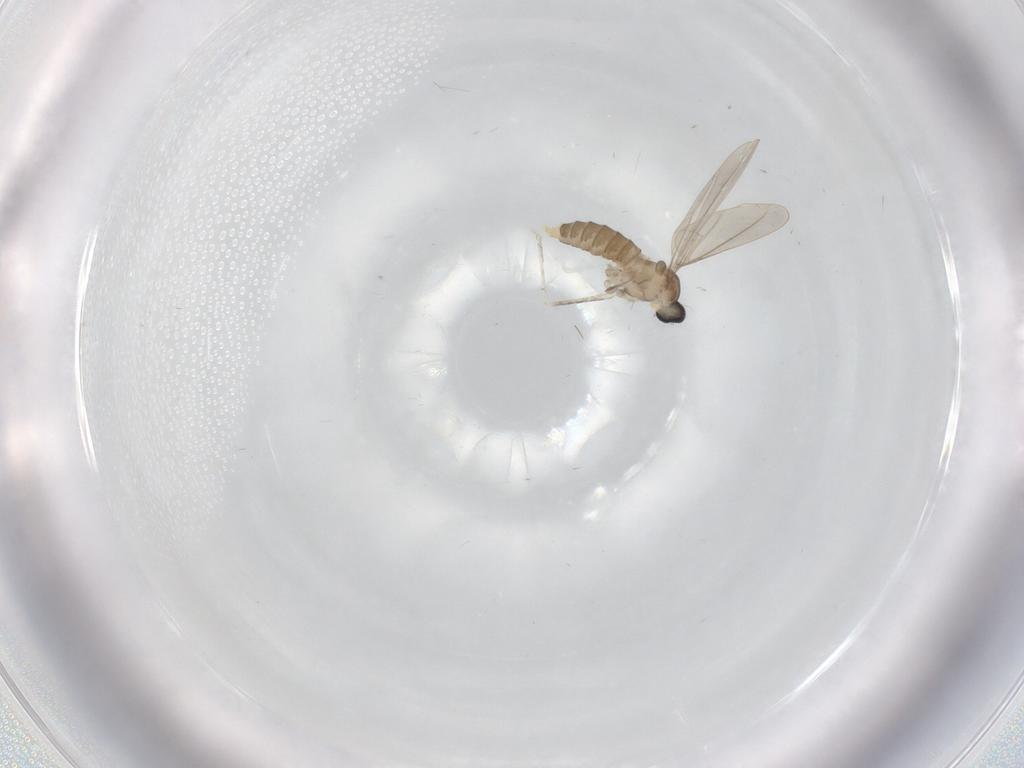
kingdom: Animalia
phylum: Arthropoda
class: Insecta
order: Diptera
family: Cecidomyiidae
